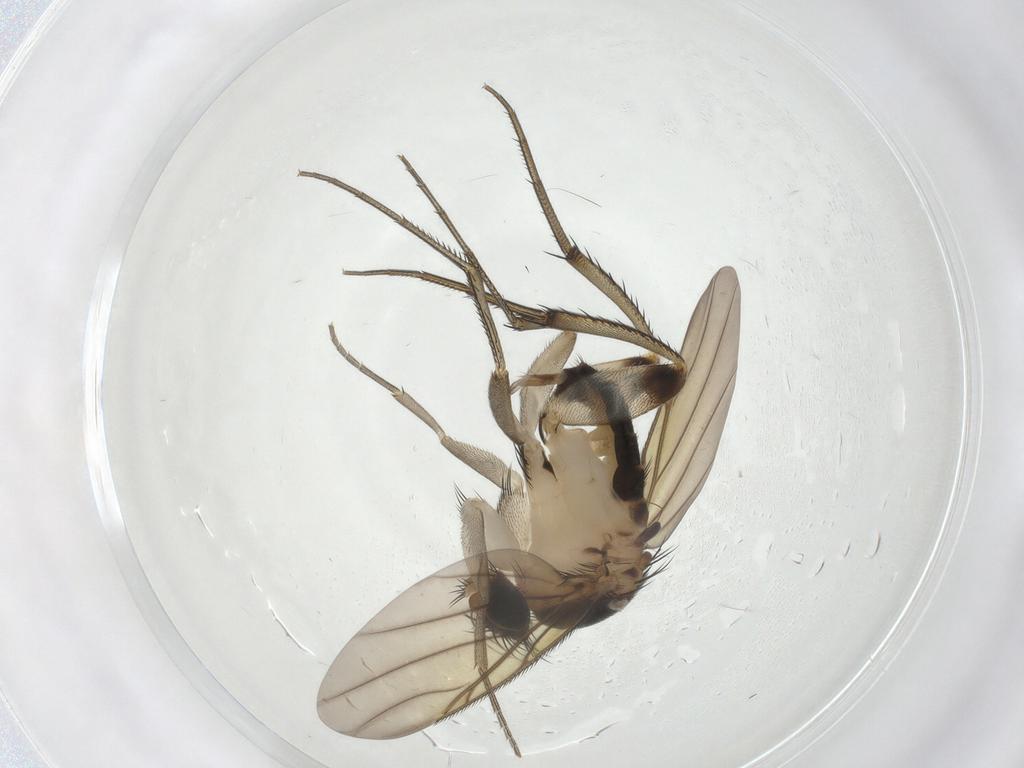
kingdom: Animalia
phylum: Arthropoda
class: Insecta
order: Diptera
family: Phoridae
